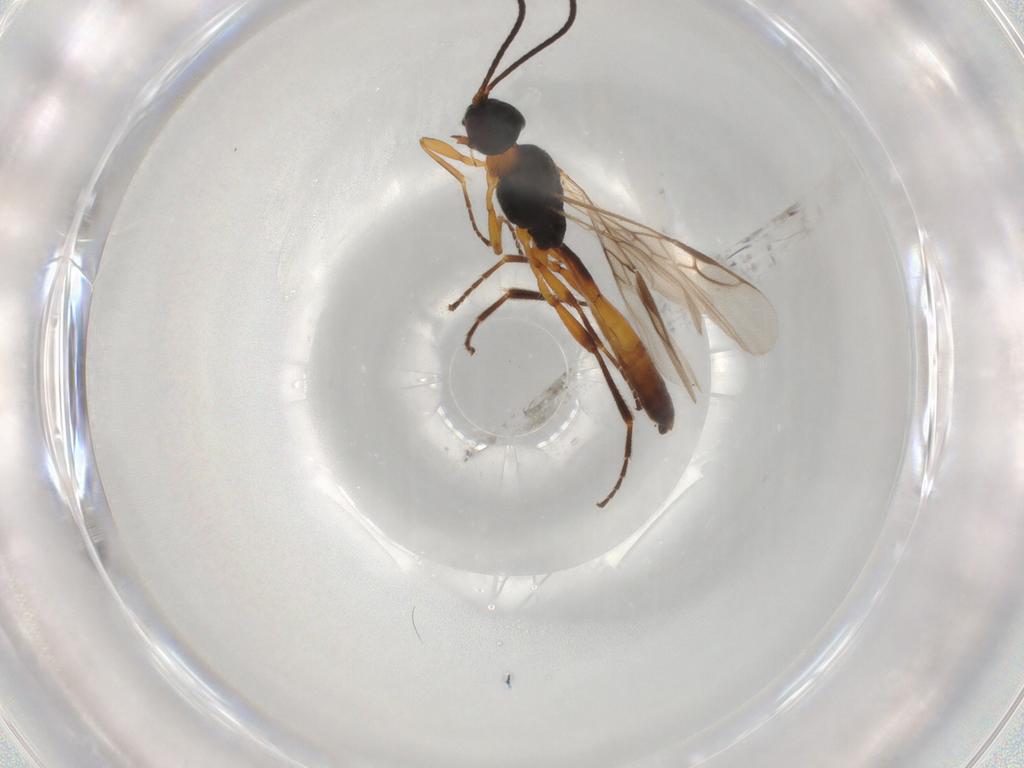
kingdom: Animalia
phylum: Arthropoda
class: Insecta
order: Hymenoptera
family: Braconidae
